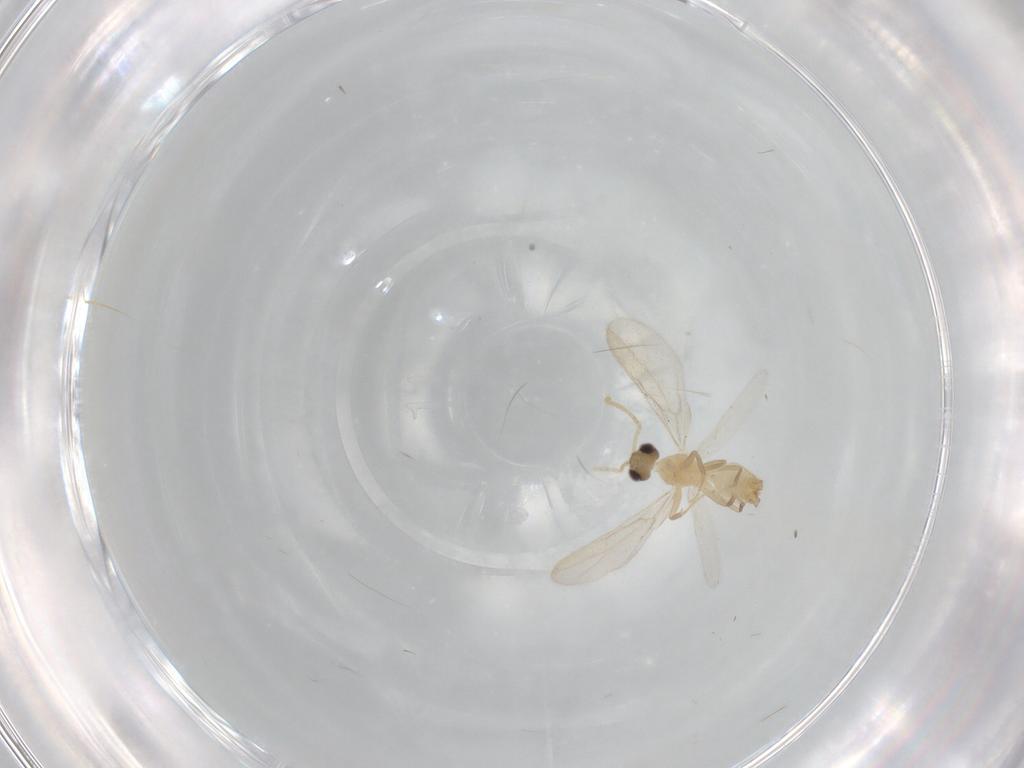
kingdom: Animalia
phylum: Arthropoda
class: Insecta
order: Hymenoptera
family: Formicidae
